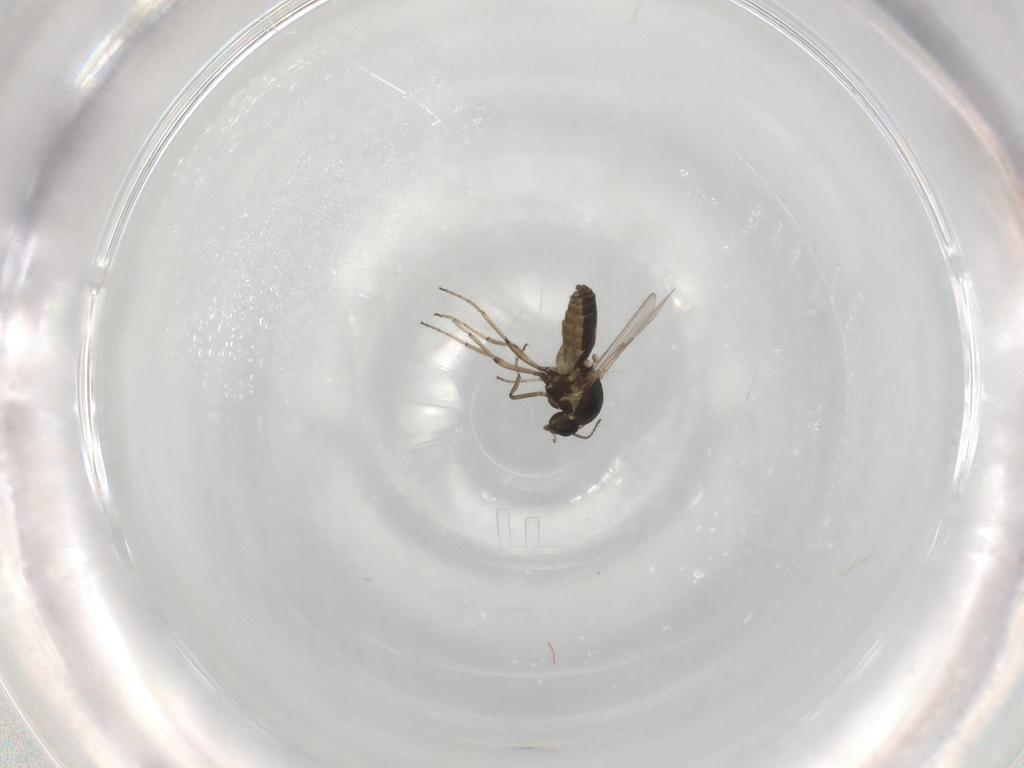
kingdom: Animalia
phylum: Arthropoda
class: Insecta
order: Diptera
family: Ceratopogonidae
